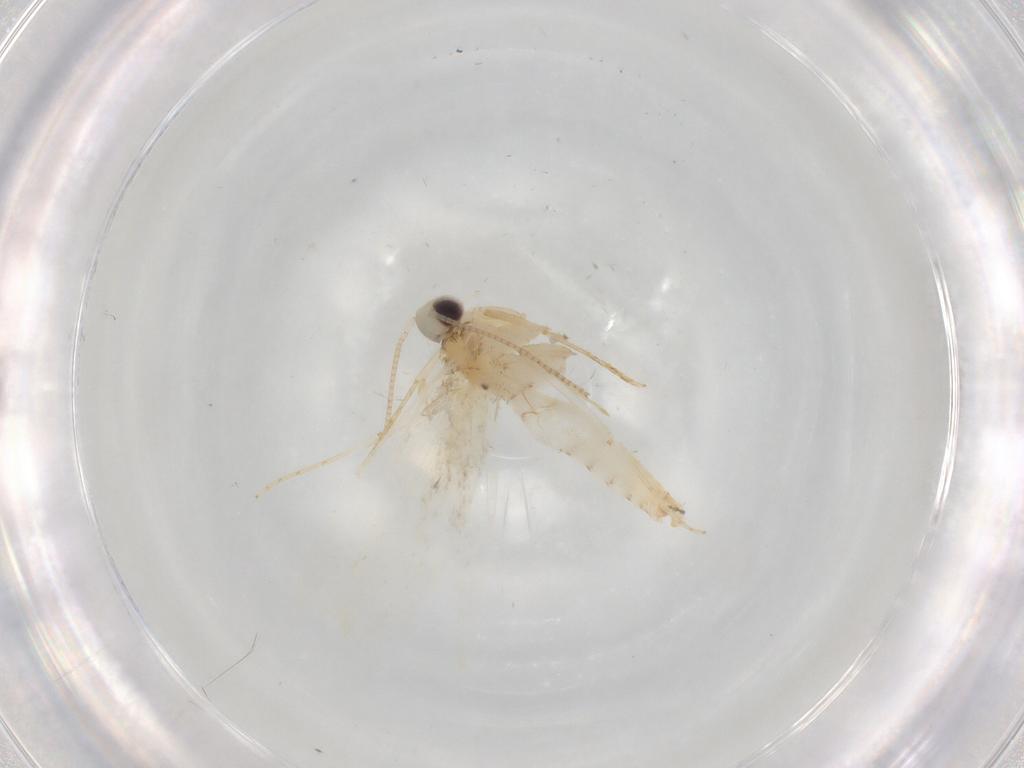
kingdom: Animalia
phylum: Arthropoda
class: Insecta
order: Lepidoptera
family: Tineidae
